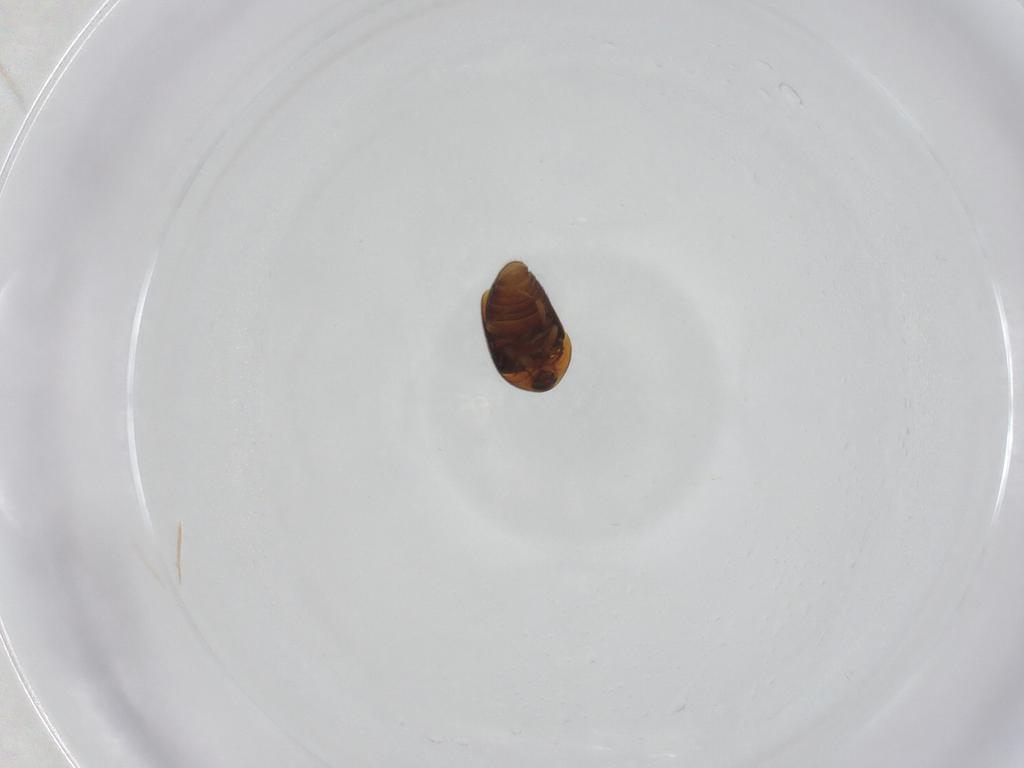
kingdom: Animalia
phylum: Arthropoda
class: Insecta
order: Coleoptera
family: Corylophidae
